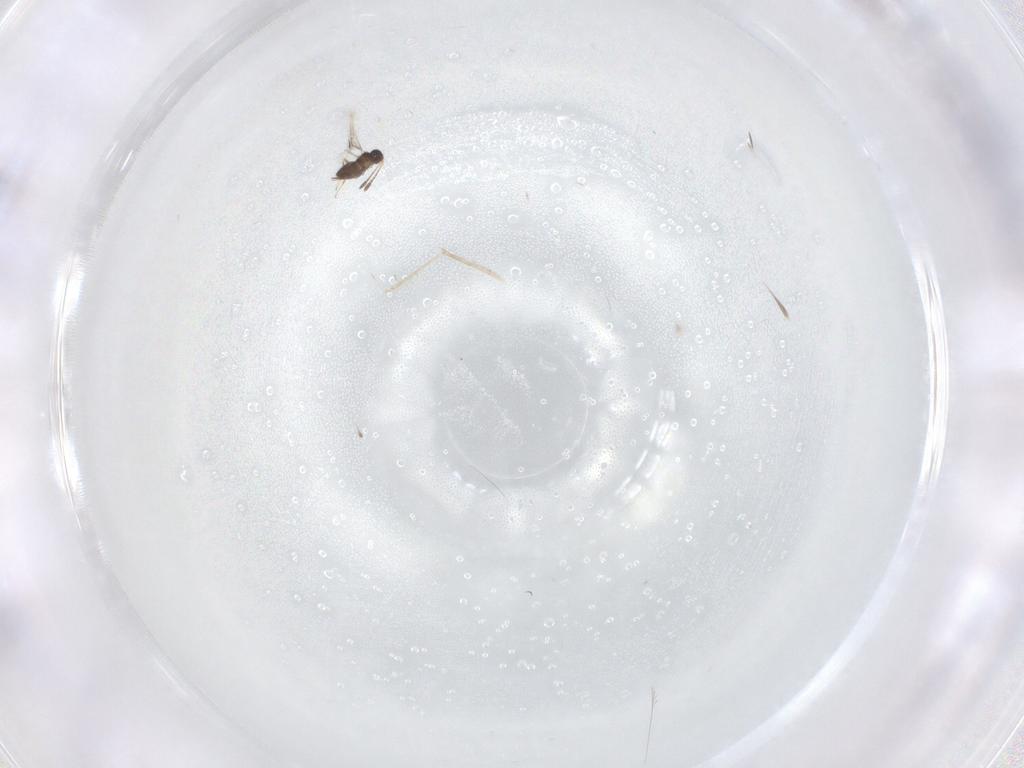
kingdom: Animalia
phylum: Arthropoda
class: Insecta
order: Hymenoptera
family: Scelionidae
